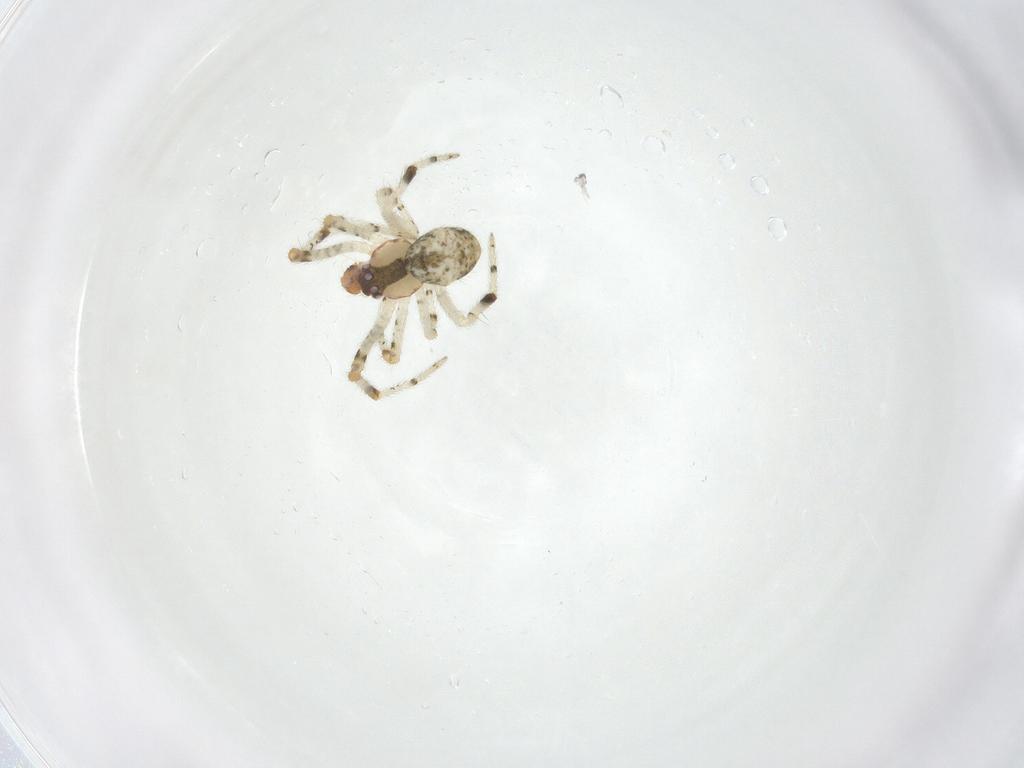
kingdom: Animalia
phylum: Arthropoda
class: Arachnida
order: Araneae
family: Theridiidae
